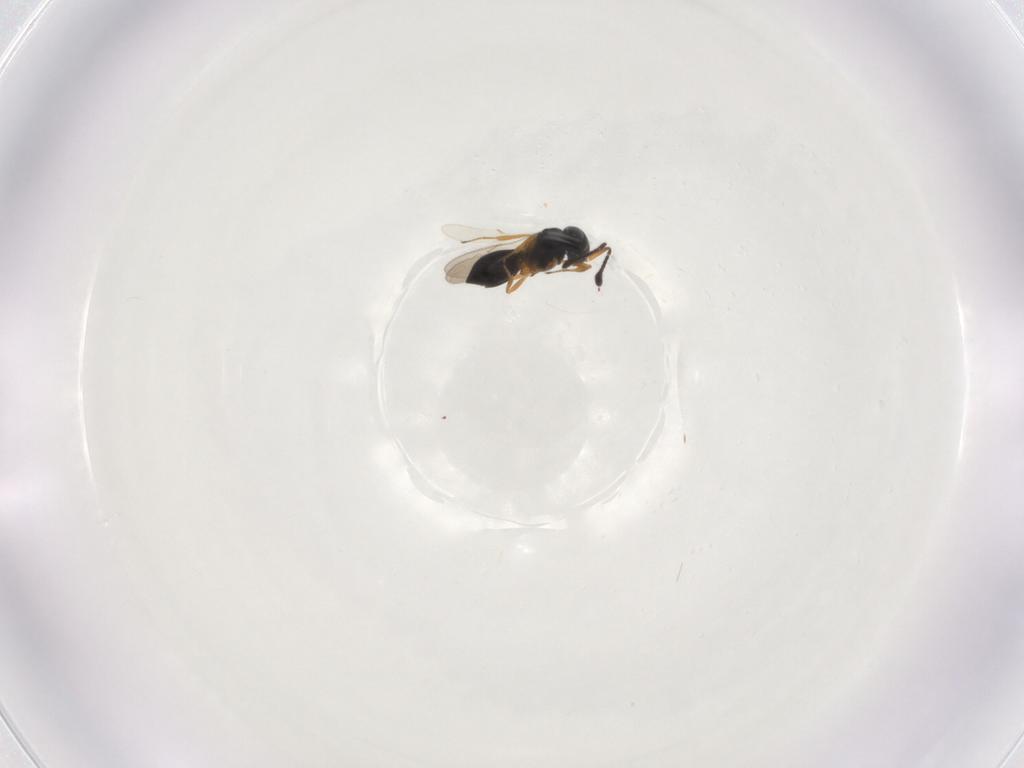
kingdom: Animalia
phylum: Arthropoda
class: Insecta
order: Hymenoptera
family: Scelionidae
